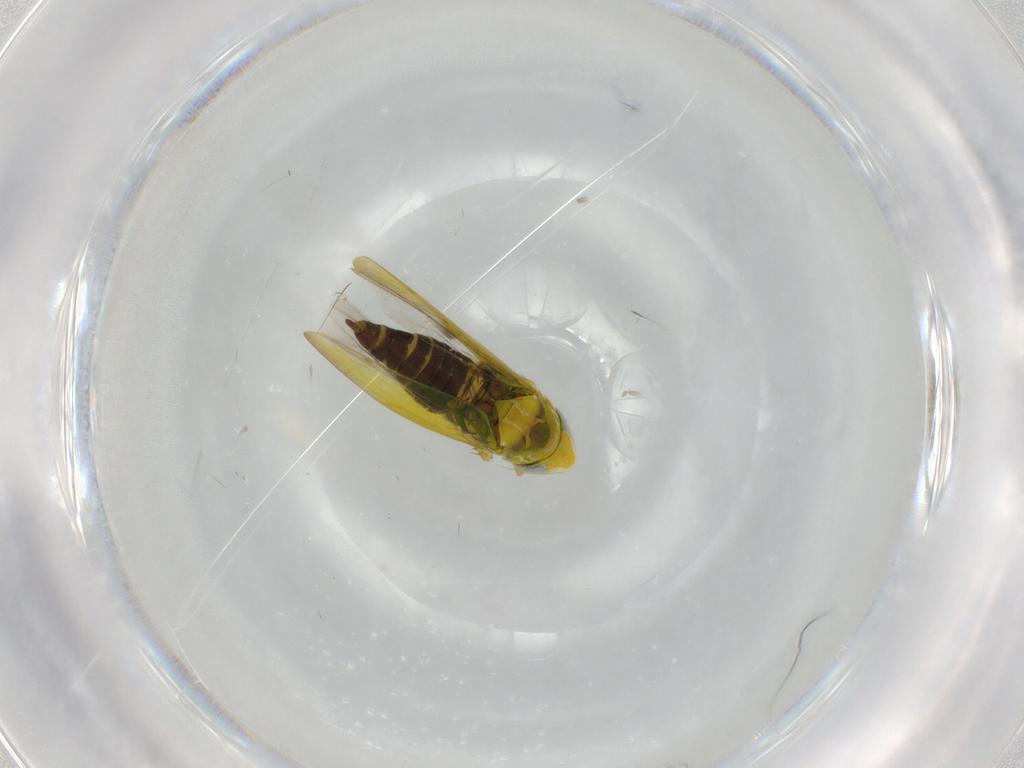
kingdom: Animalia
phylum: Arthropoda
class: Insecta
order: Hemiptera
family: Cicadellidae
